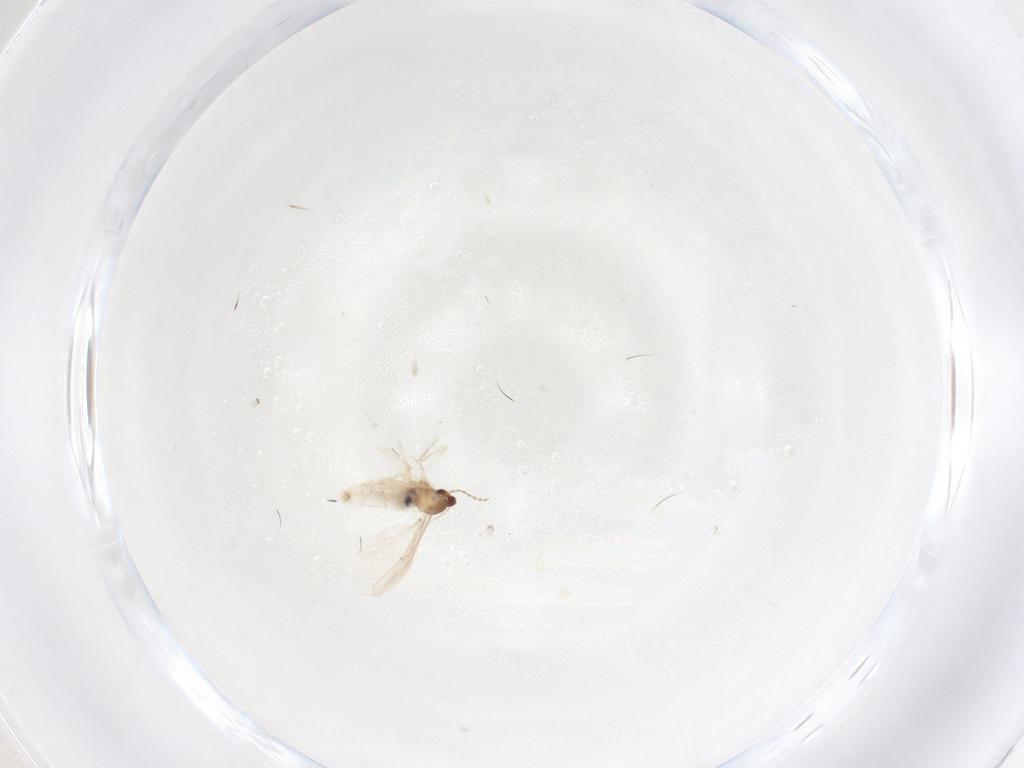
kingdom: Animalia
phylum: Arthropoda
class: Insecta
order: Diptera
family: Cecidomyiidae
